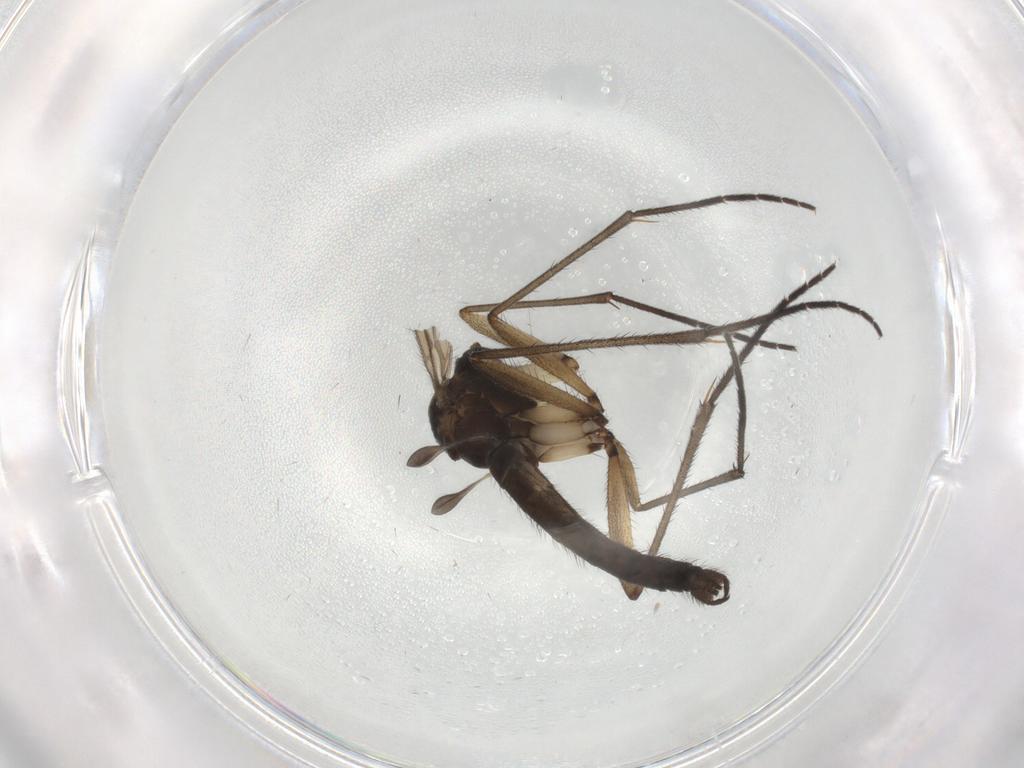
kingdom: Animalia
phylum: Arthropoda
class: Insecta
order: Diptera
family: Sciaridae
